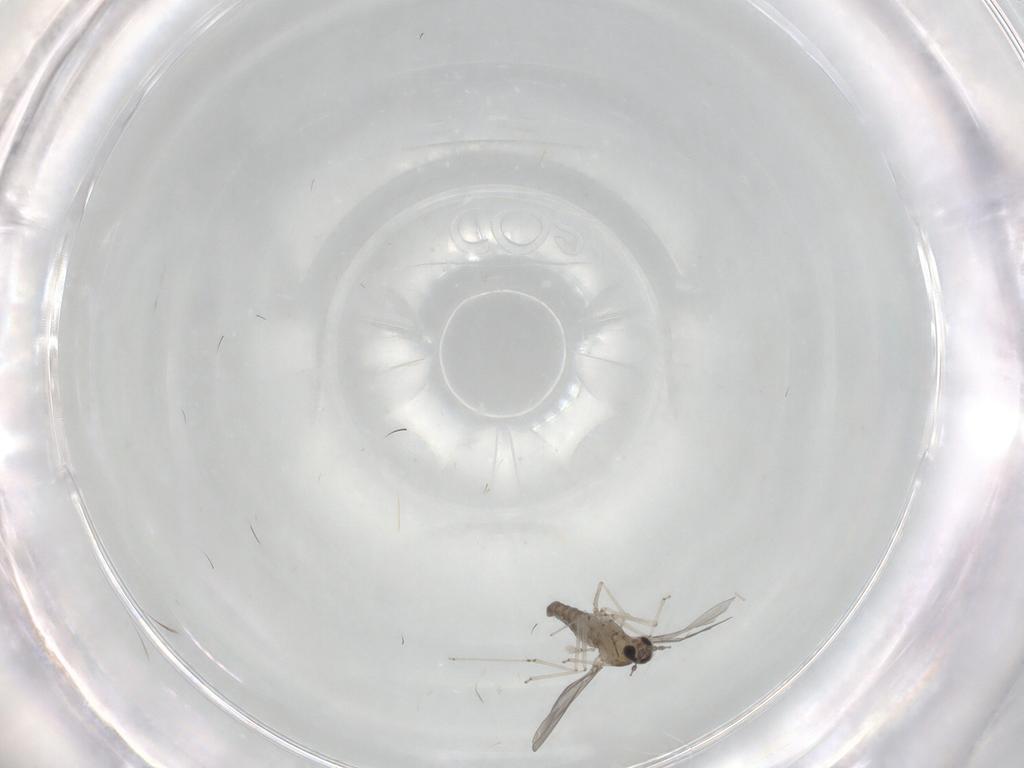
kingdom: Animalia
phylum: Arthropoda
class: Insecta
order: Diptera
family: Cecidomyiidae
